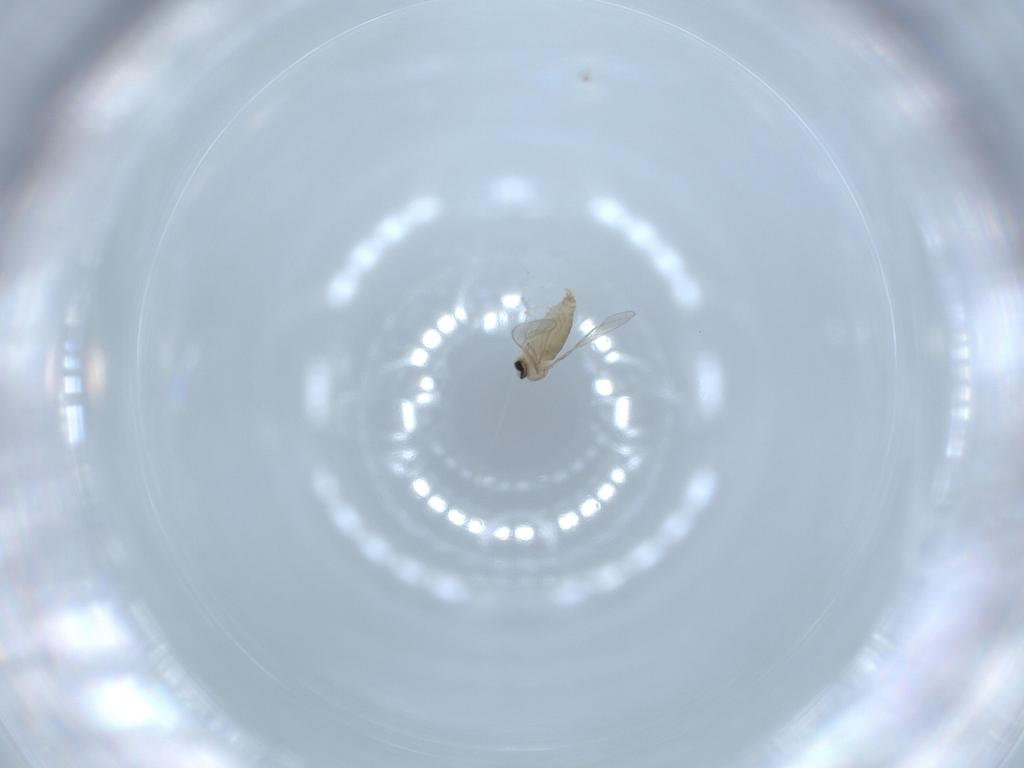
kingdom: Animalia
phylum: Arthropoda
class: Insecta
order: Diptera
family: Cecidomyiidae
